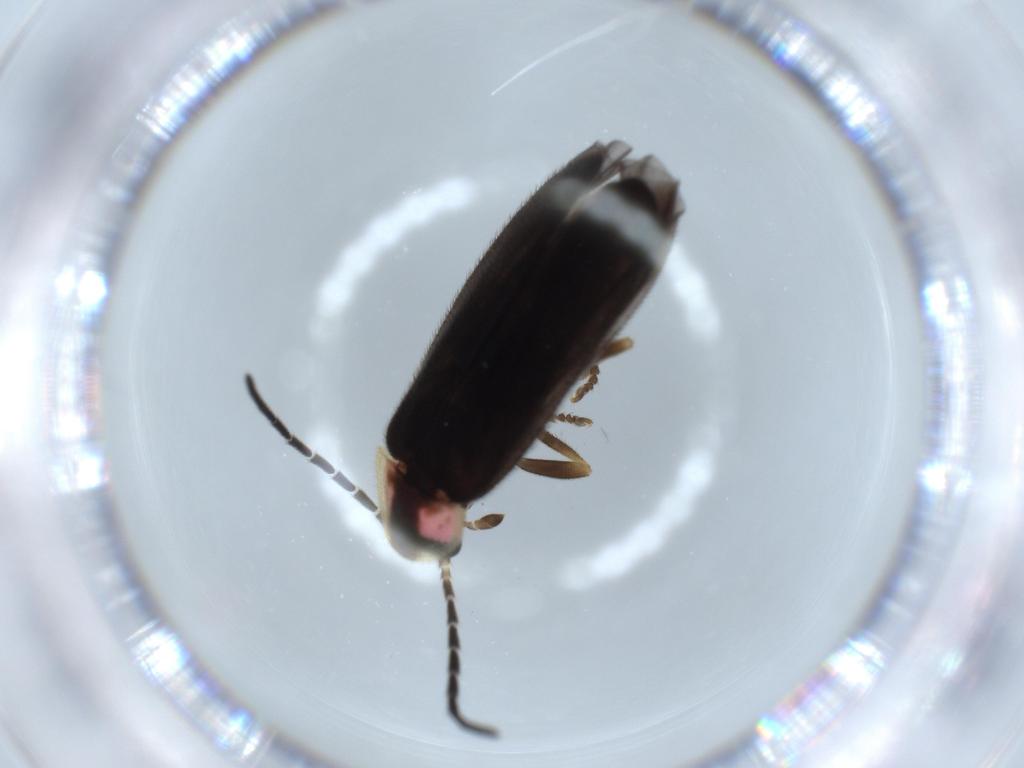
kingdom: Animalia
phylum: Arthropoda
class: Insecta
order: Coleoptera
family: Lampyridae
